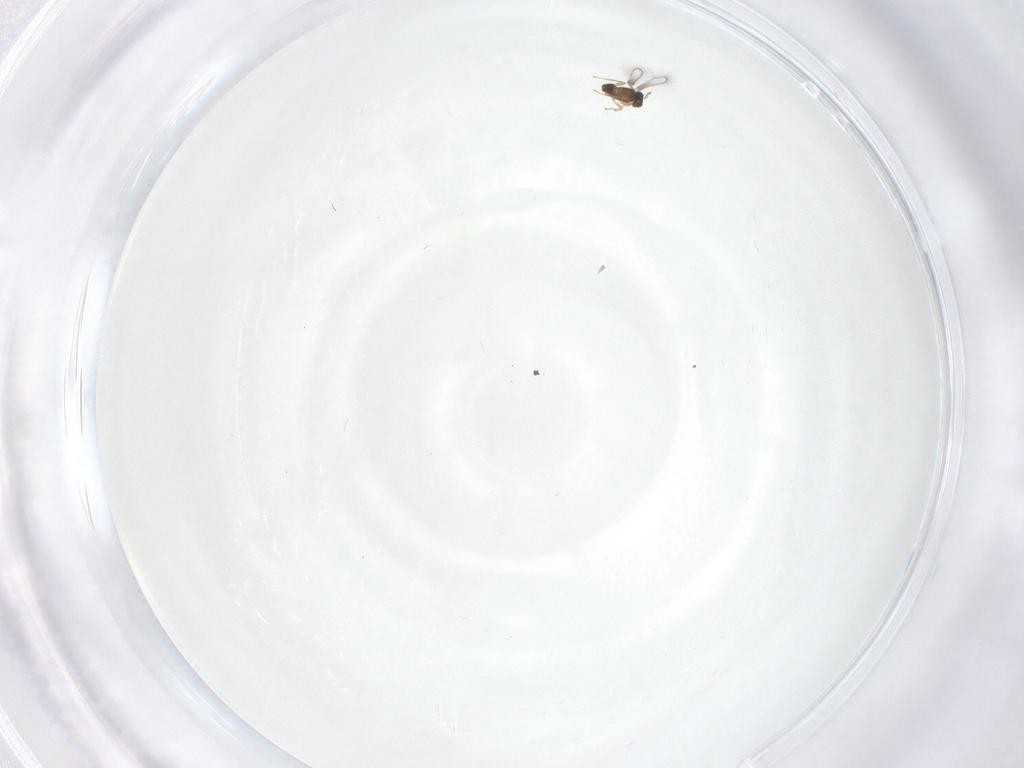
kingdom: Animalia
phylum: Arthropoda
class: Insecta
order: Hymenoptera
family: Mymaridae
